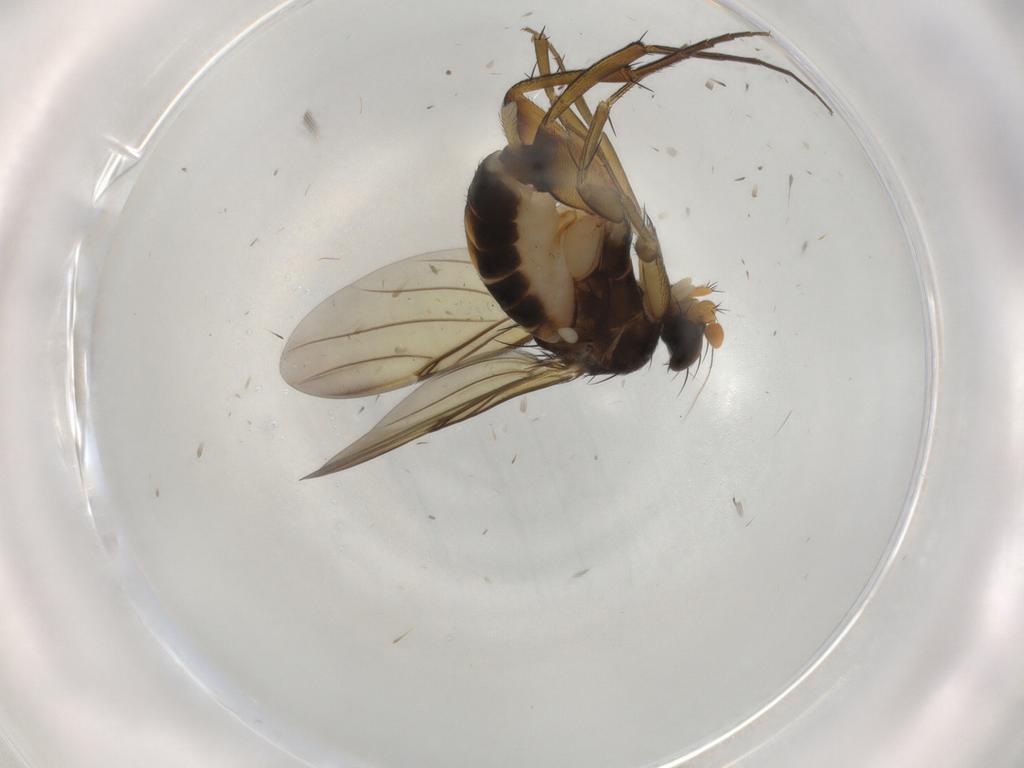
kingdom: Animalia
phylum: Arthropoda
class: Insecta
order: Diptera
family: Phoridae
